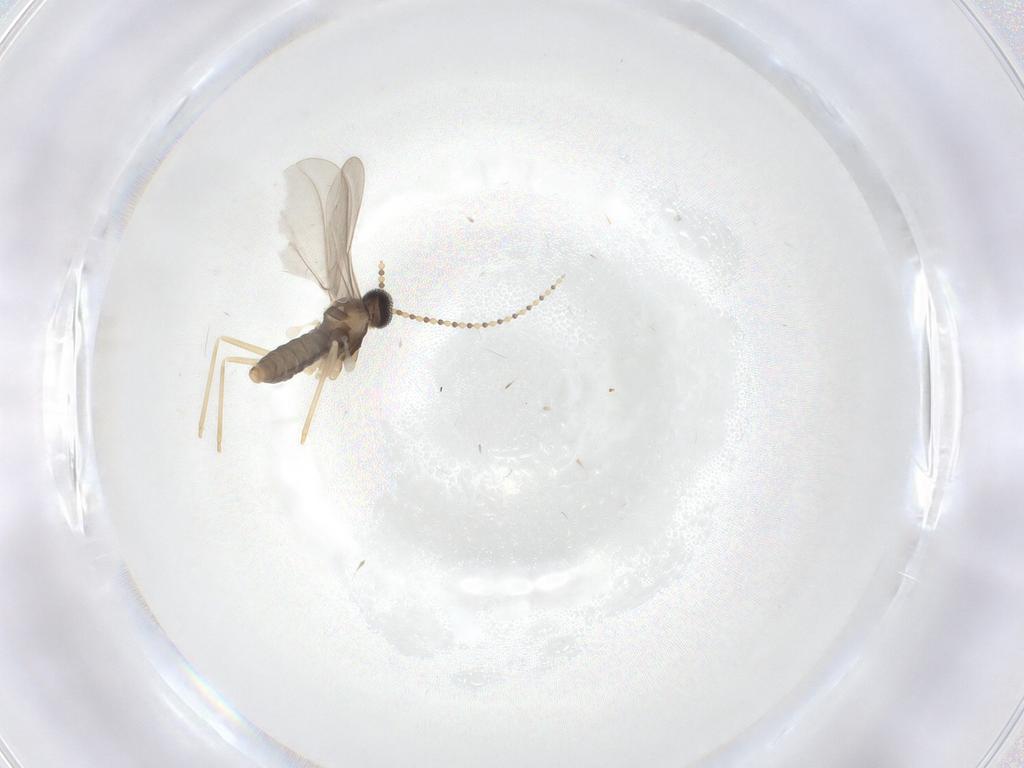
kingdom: Animalia
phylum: Arthropoda
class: Insecta
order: Diptera
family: Cecidomyiidae
